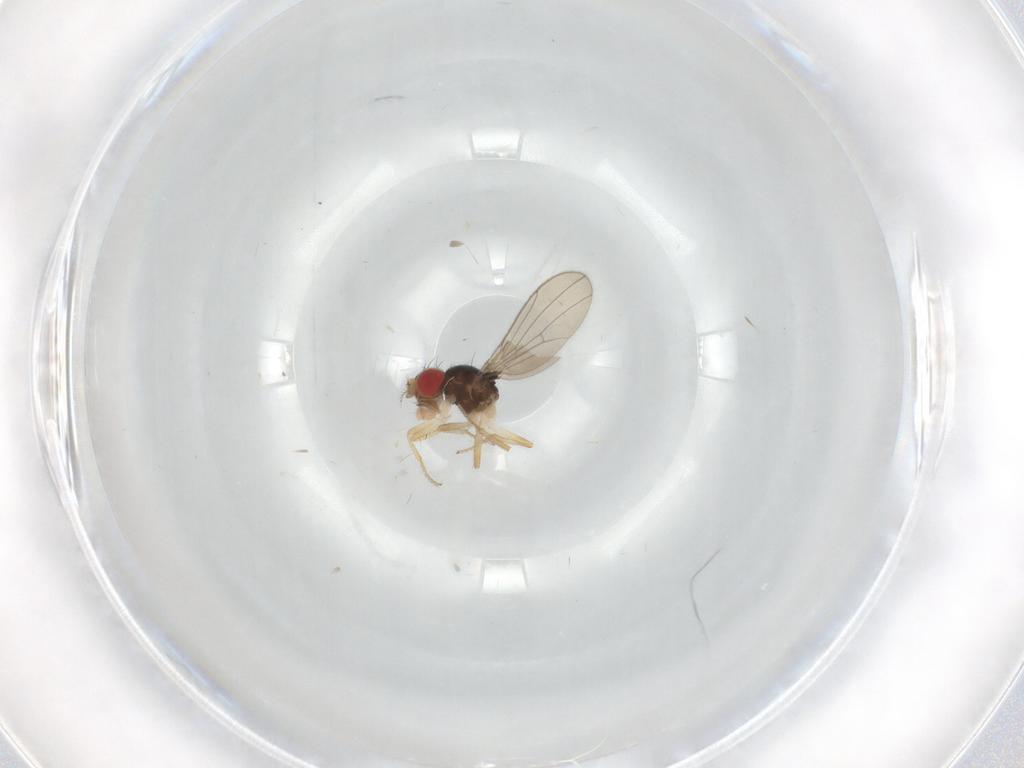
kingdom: Animalia
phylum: Arthropoda
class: Insecta
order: Diptera
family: Drosophilidae
